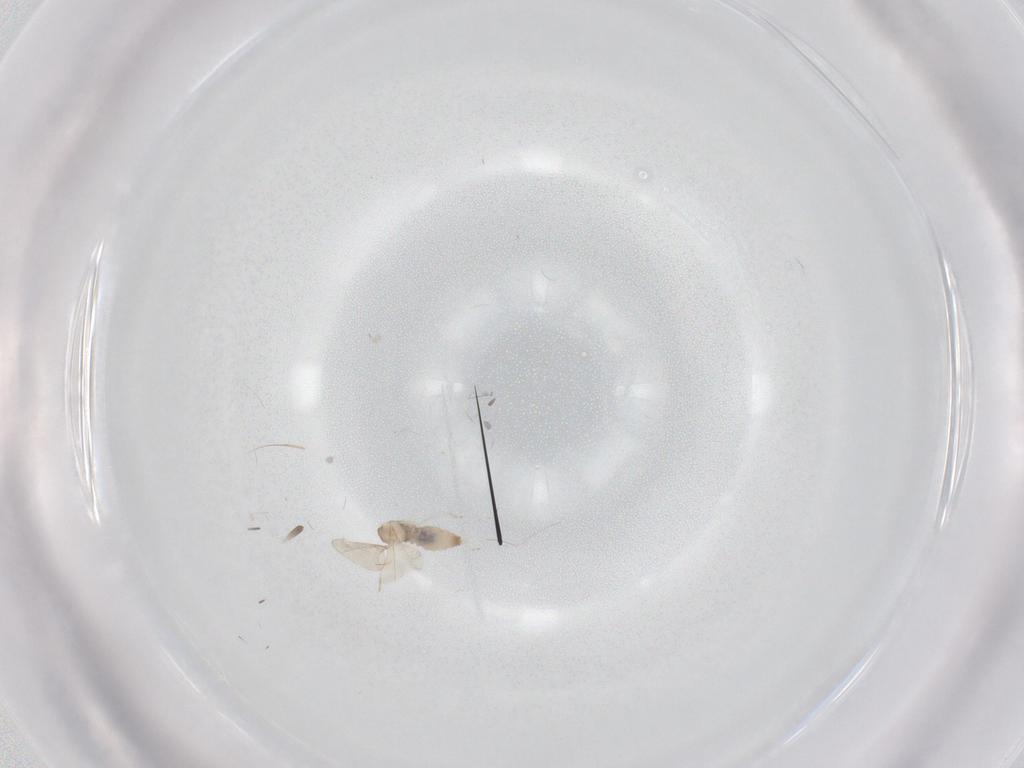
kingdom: Animalia
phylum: Arthropoda
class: Insecta
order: Diptera
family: Cecidomyiidae
